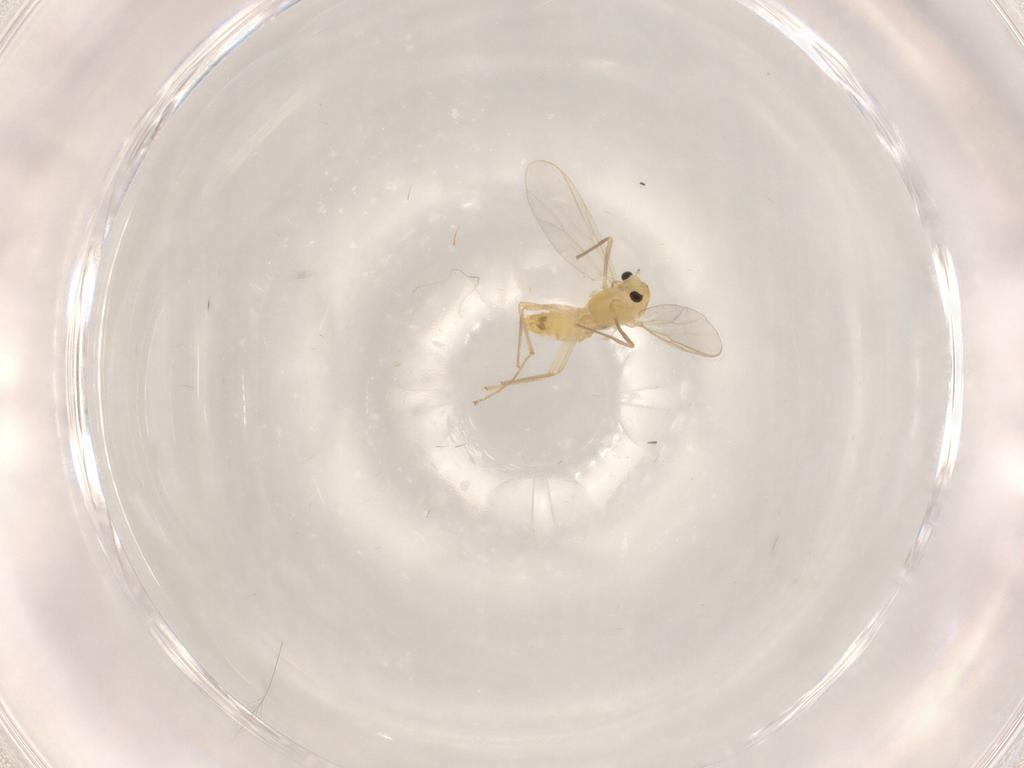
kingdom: Animalia
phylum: Arthropoda
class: Insecta
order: Diptera
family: Chironomidae
